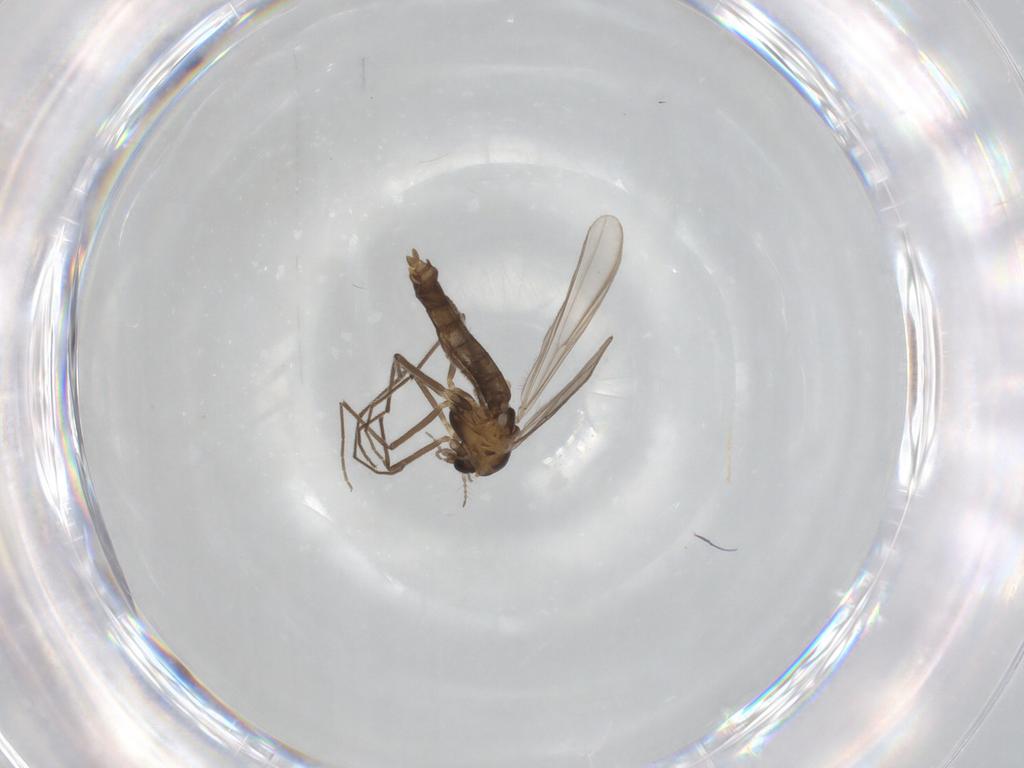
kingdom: Animalia
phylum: Arthropoda
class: Insecta
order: Diptera
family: Chironomidae
